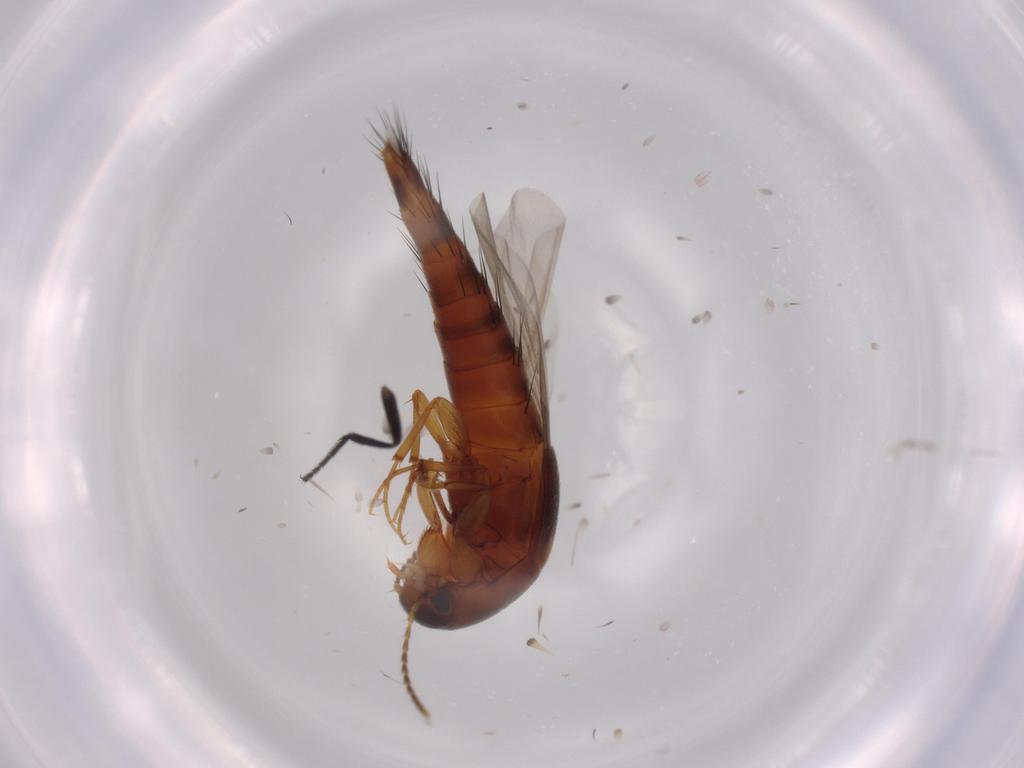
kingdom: Animalia
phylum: Arthropoda
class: Insecta
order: Coleoptera
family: Staphylinidae
